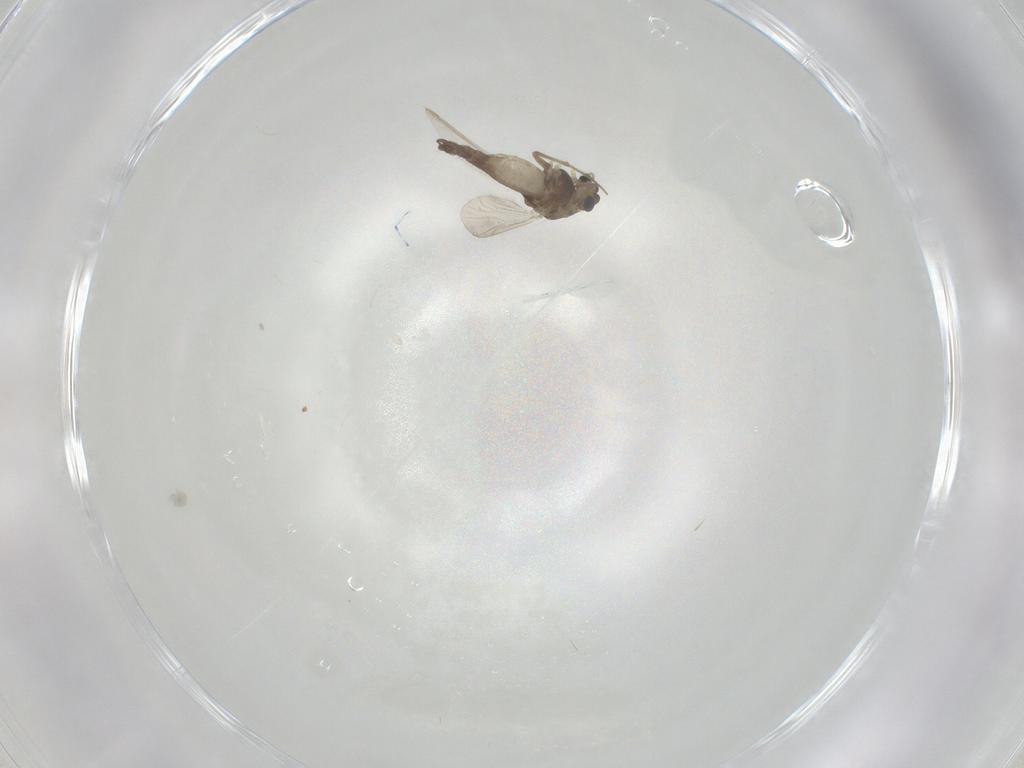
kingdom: Animalia
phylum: Arthropoda
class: Insecta
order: Diptera
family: Chironomidae
